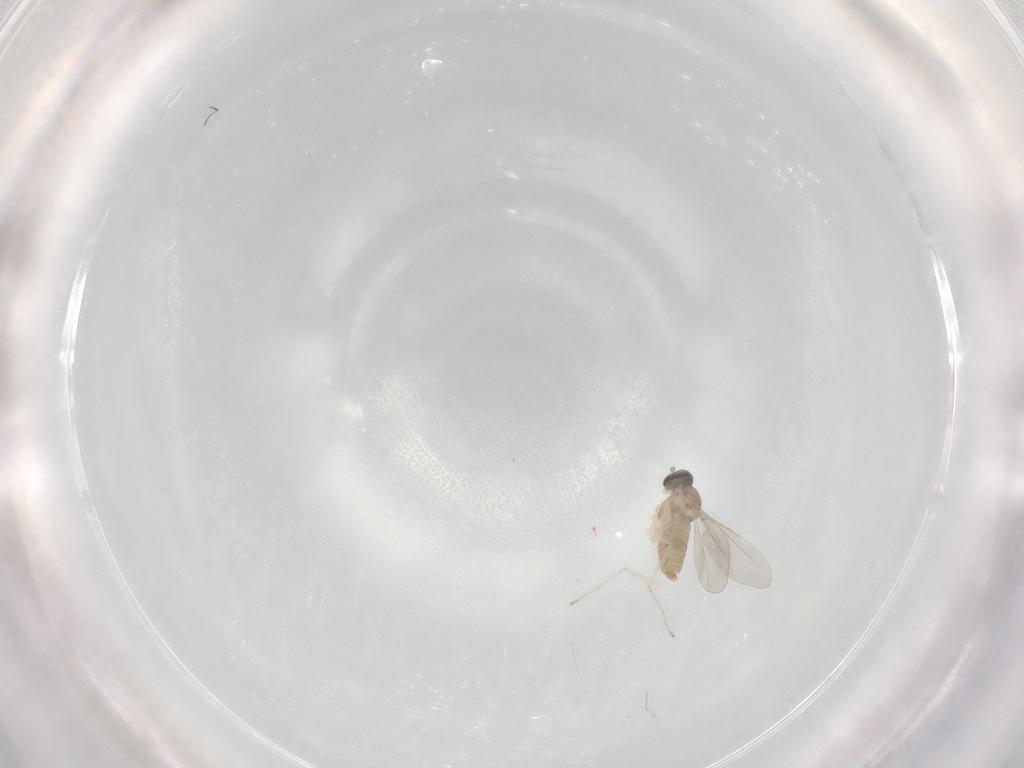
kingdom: Animalia
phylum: Arthropoda
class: Insecta
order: Diptera
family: Cecidomyiidae
